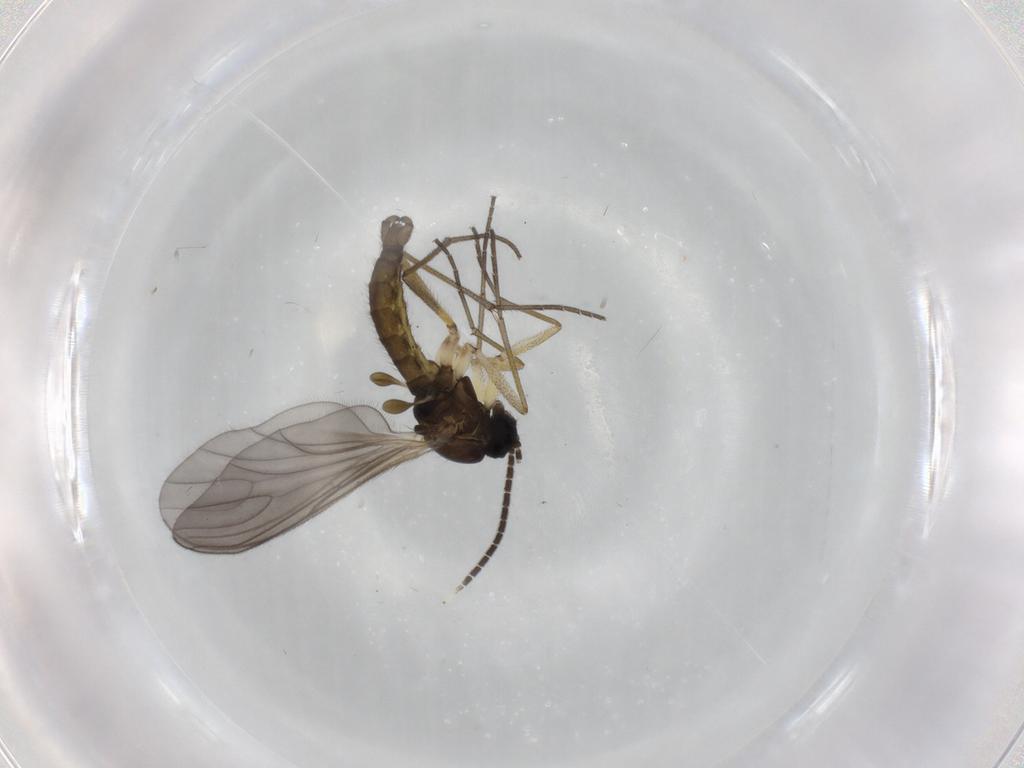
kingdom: Animalia
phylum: Arthropoda
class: Insecta
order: Diptera
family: Sciaridae
